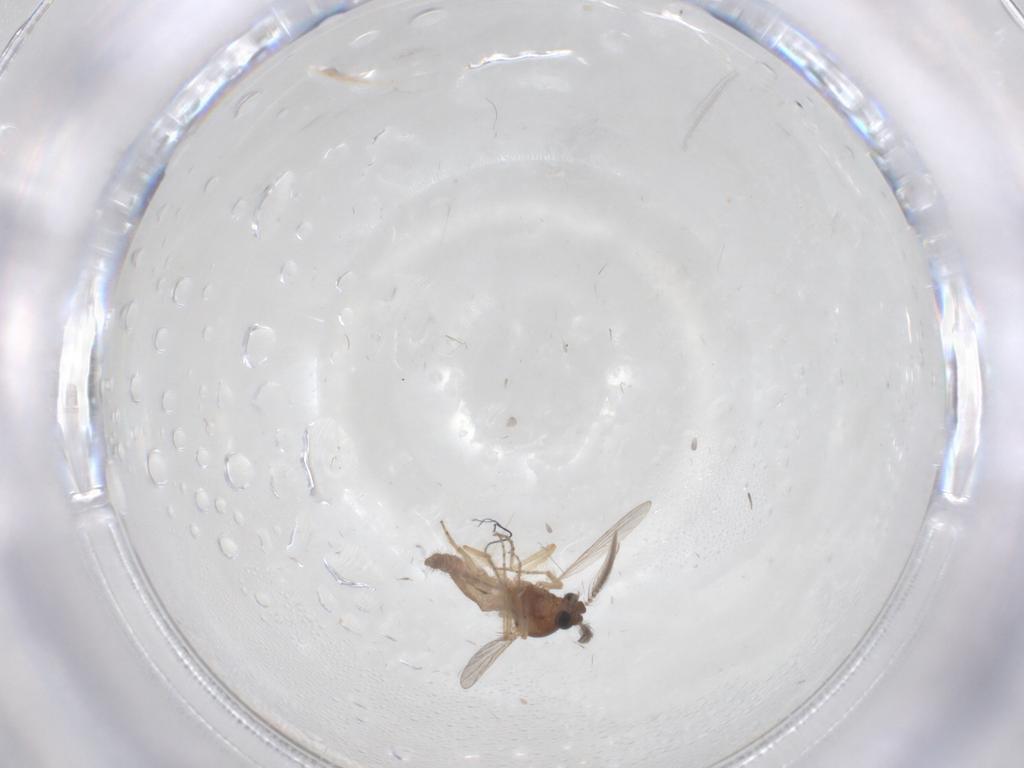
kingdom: Animalia
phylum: Arthropoda
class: Insecta
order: Diptera
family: Ceratopogonidae
